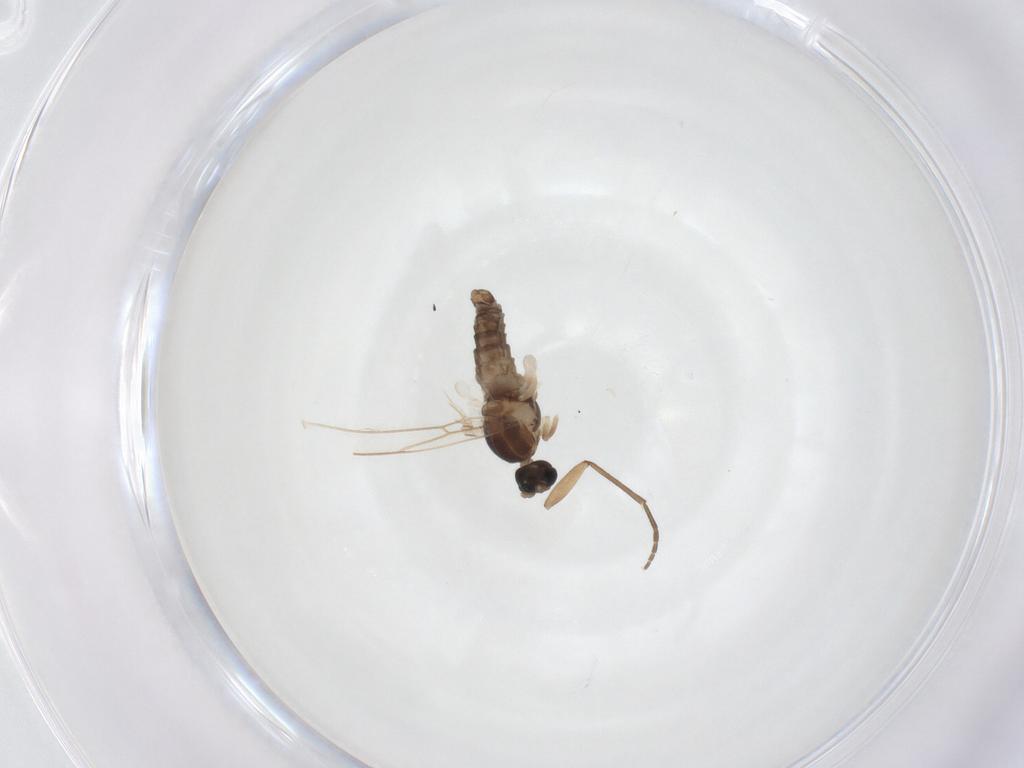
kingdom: Animalia
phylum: Arthropoda
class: Insecta
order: Diptera
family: Cecidomyiidae
